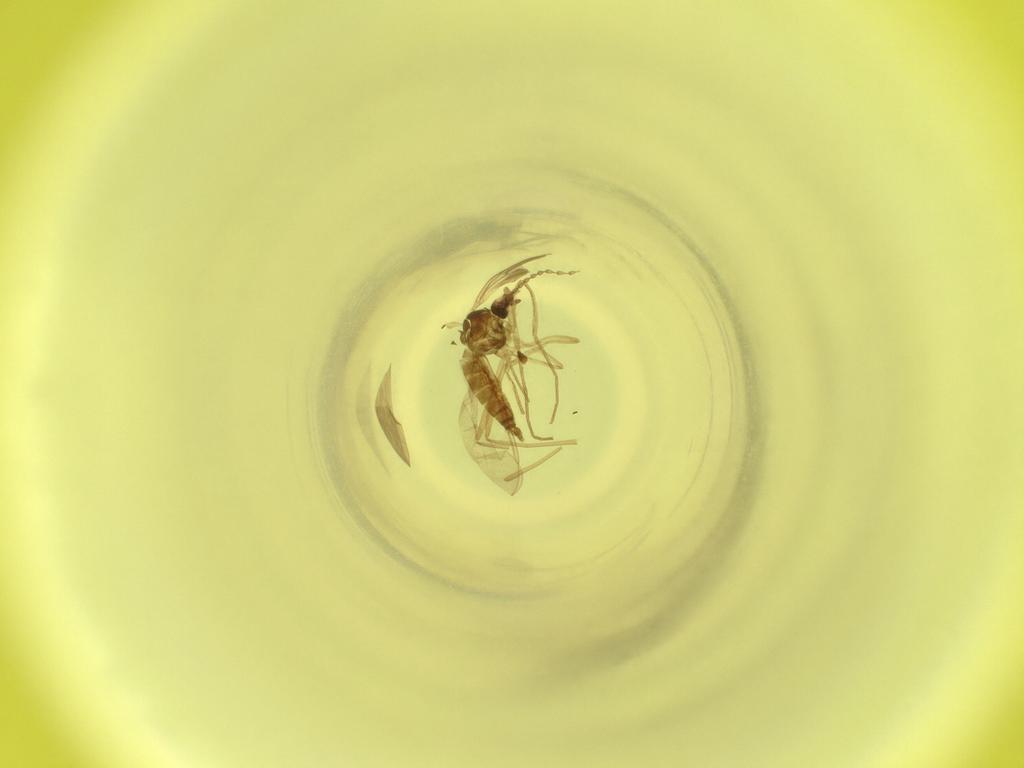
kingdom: Animalia
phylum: Arthropoda
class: Insecta
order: Diptera
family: Cecidomyiidae
